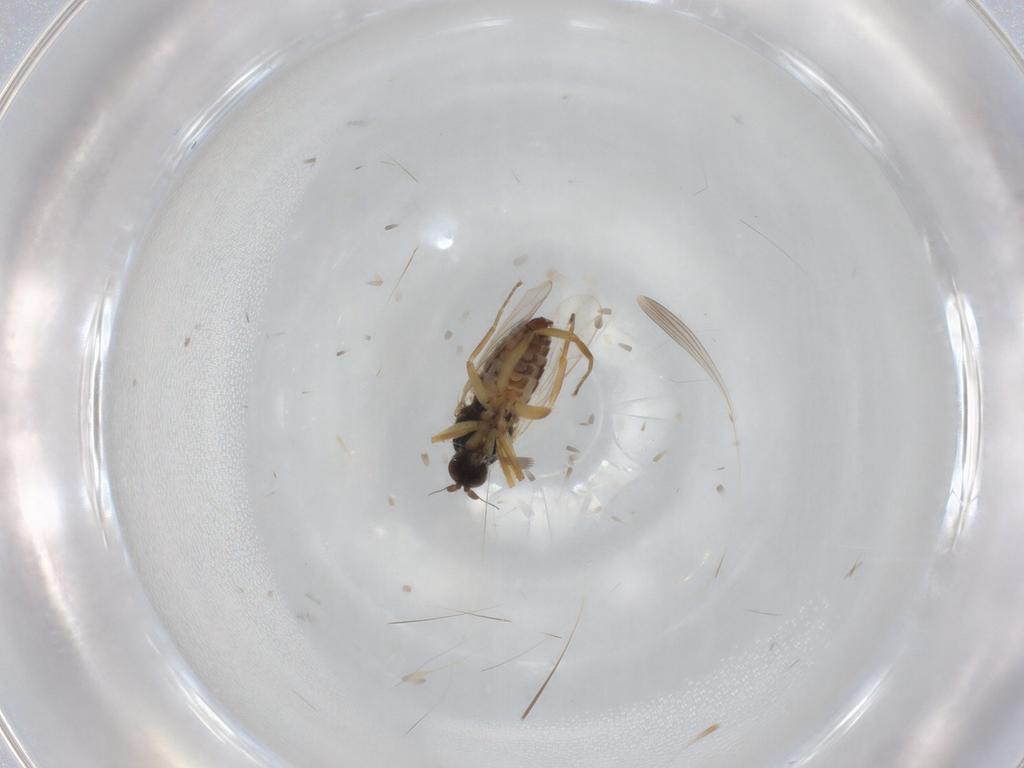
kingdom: Animalia
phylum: Arthropoda
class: Insecta
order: Diptera
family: Hybotidae
